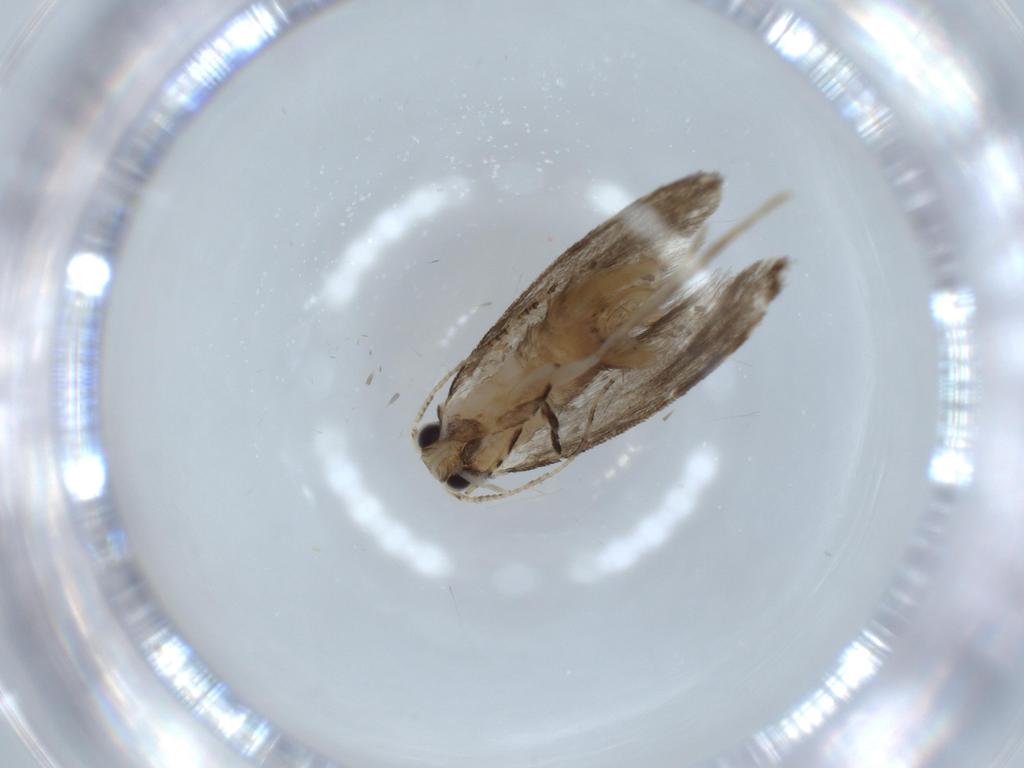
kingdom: Animalia
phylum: Arthropoda
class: Insecta
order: Lepidoptera
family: Tineidae
